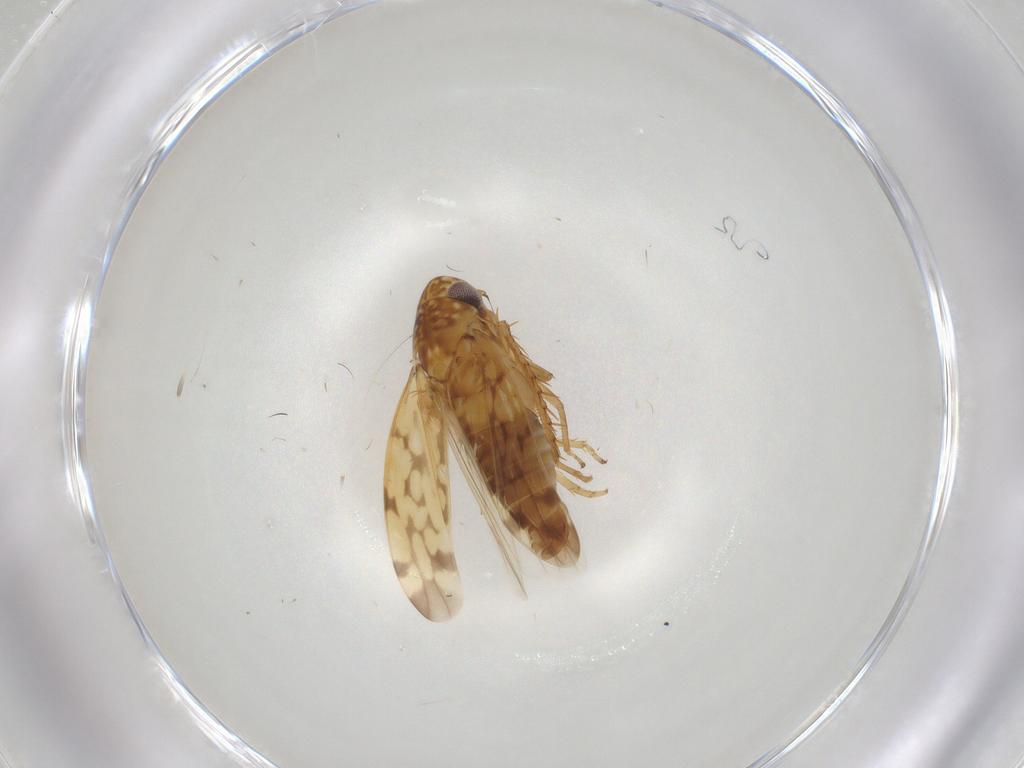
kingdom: Animalia
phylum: Arthropoda
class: Insecta
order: Hemiptera
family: Cicadellidae
